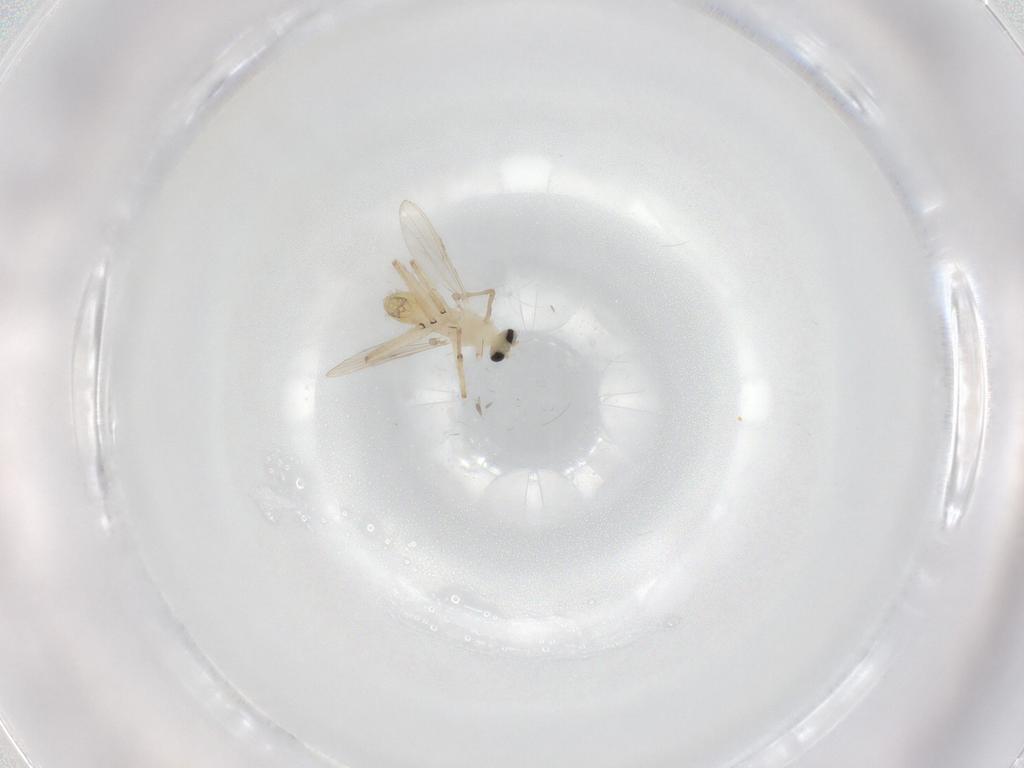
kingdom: Animalia
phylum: Arthropoda
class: Insecta
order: Diptera
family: Chironomidae
